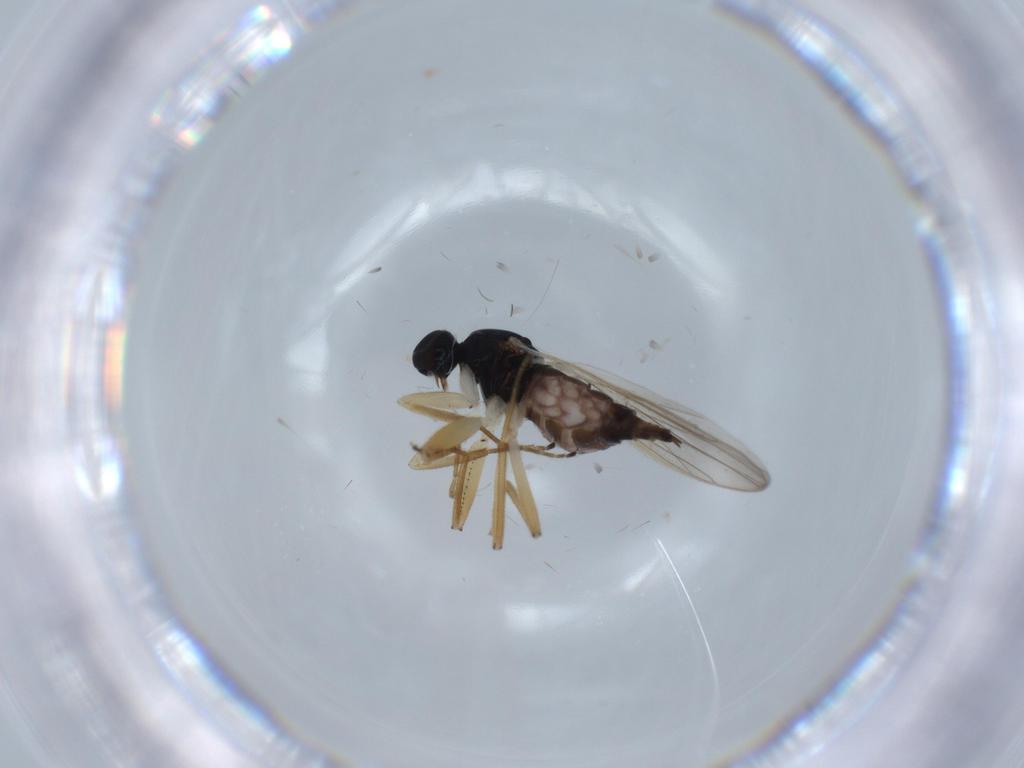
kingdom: Animalia
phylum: Arthropoda
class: Insecta
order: Diptera
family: Hybotidae
